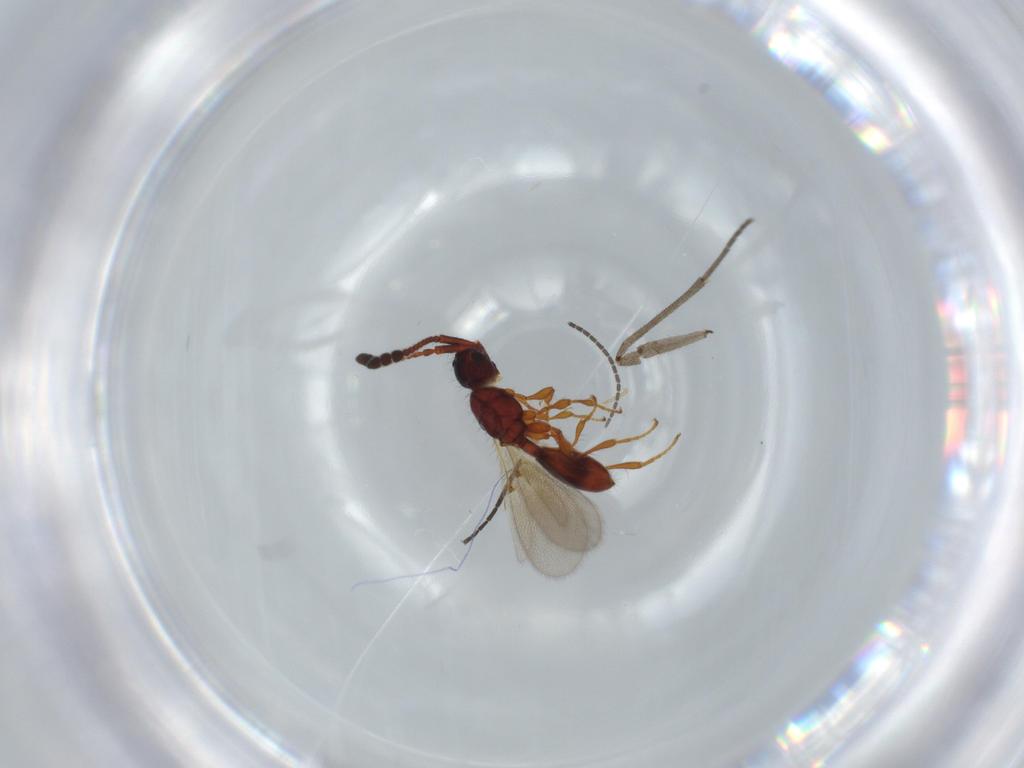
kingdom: Animalia
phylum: Arthropoda
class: Insecta
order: Hymenoptera
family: Diapriidae
